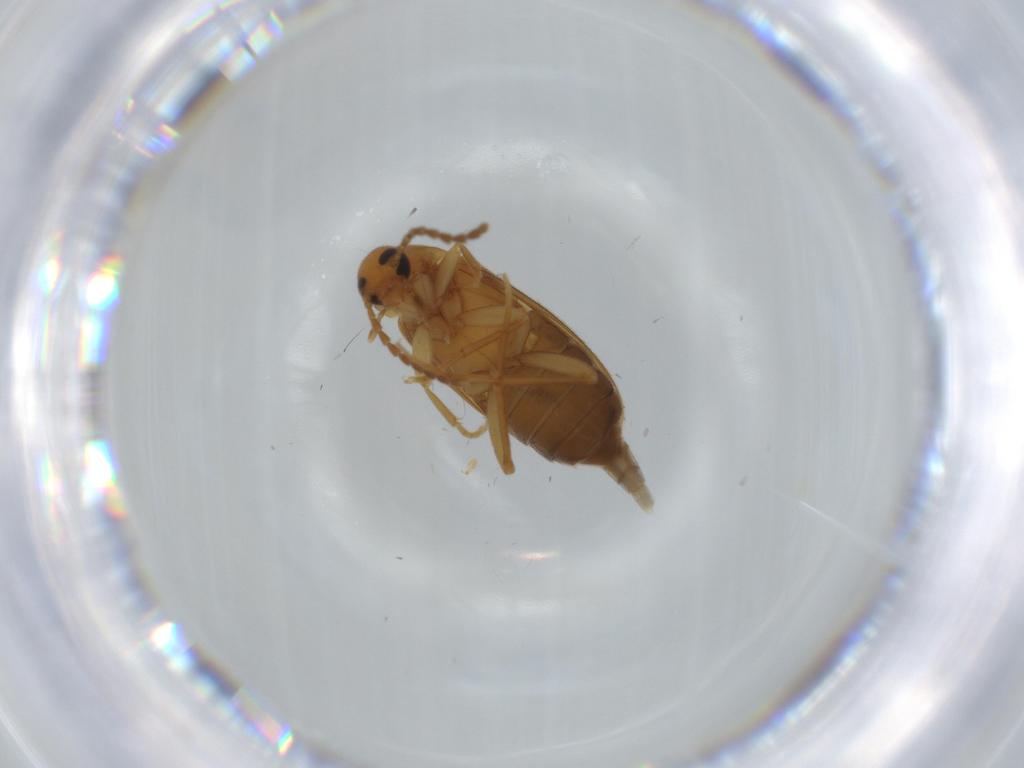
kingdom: Animalia
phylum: Arthropoda
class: Insecta
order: Coleoptera
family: Scraptiidae
